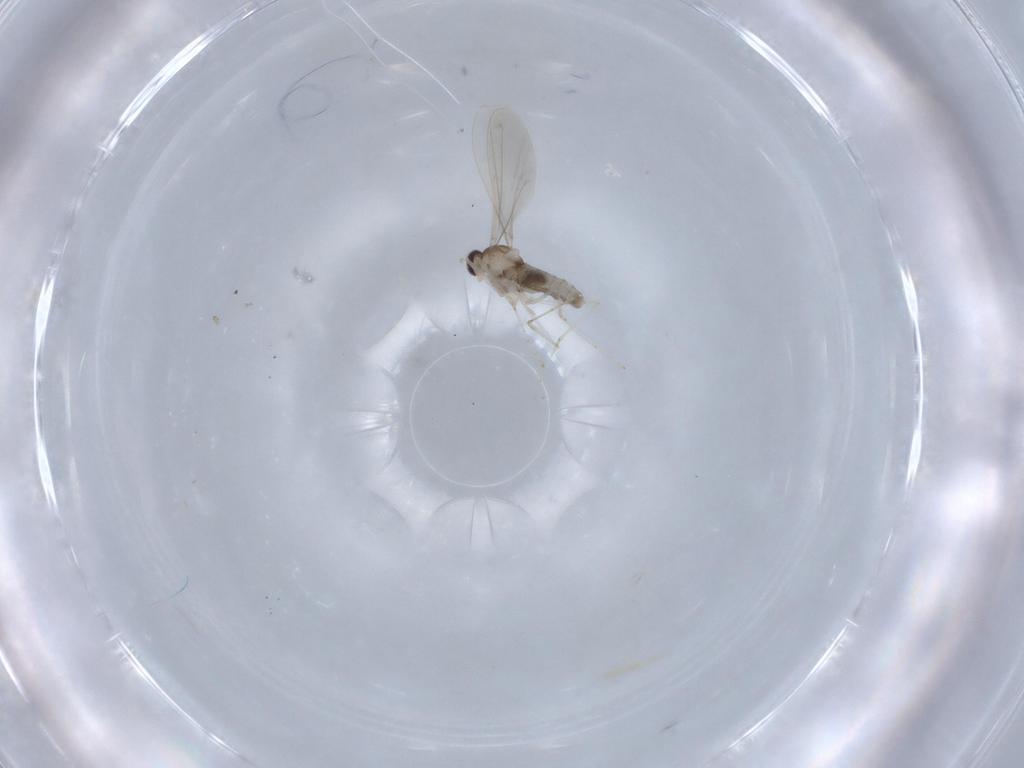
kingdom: Animalia
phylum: Arthropoda
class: Insecta
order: Diptera
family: Cecidomyiidae
